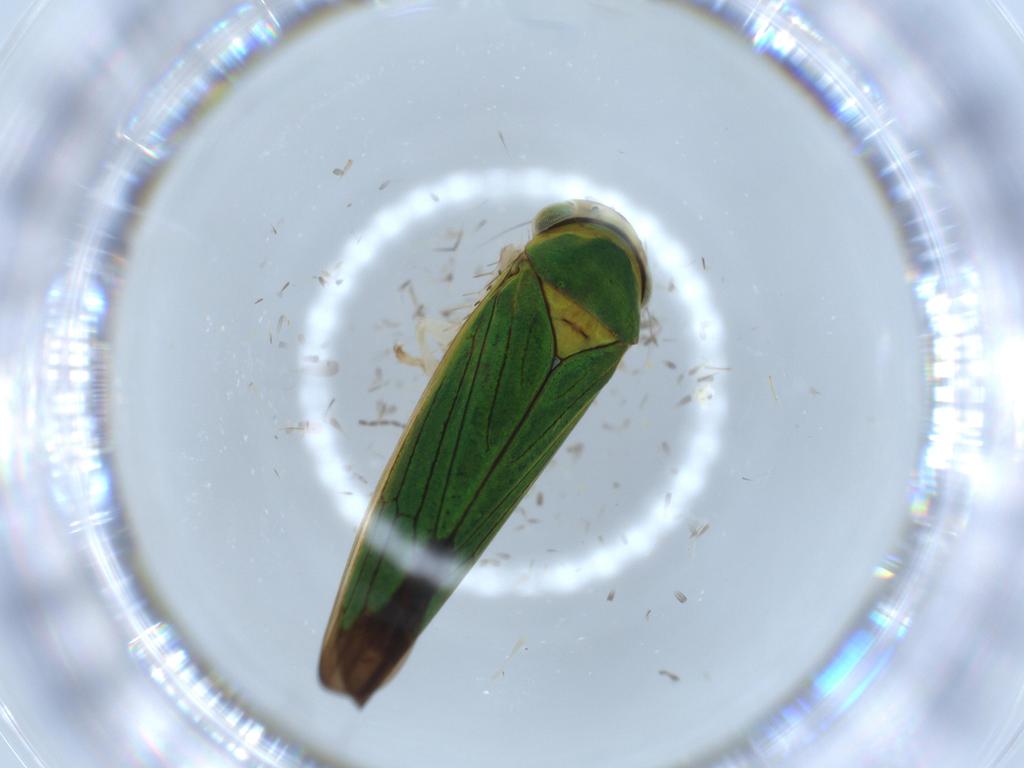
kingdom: Animalia
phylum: Arthropoda
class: Insecta
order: Hemiptera
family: Cicadellidae
